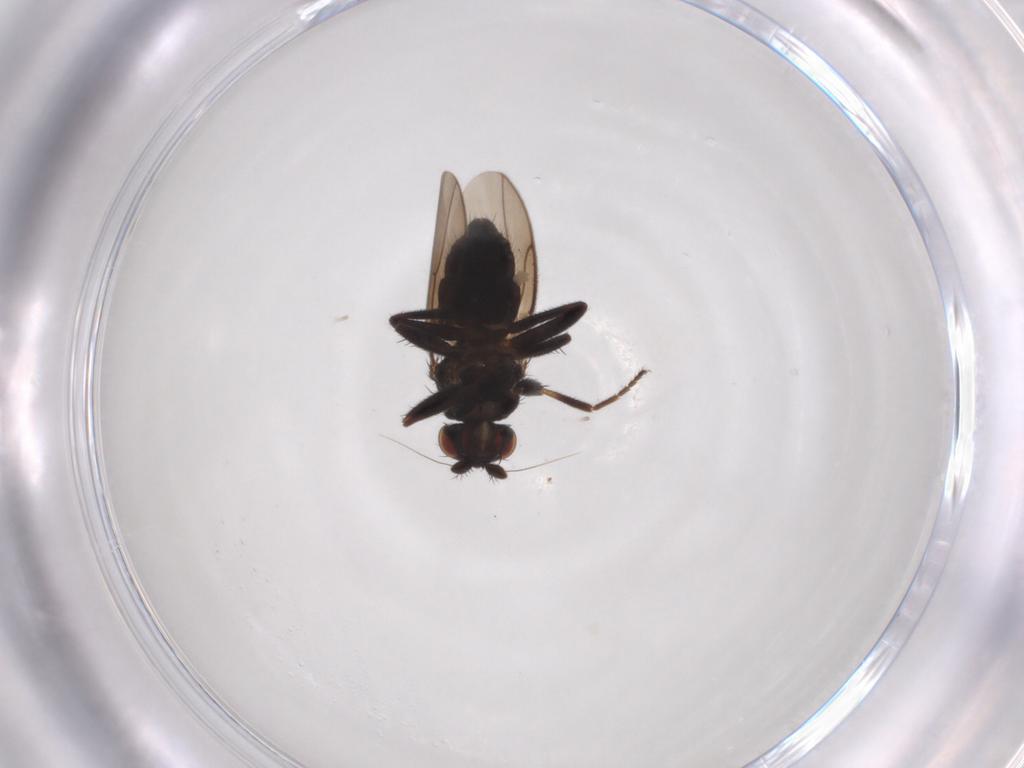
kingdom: Animalia
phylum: Arthropoda
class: Insecta
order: Diptera
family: Sphaeroceridae
